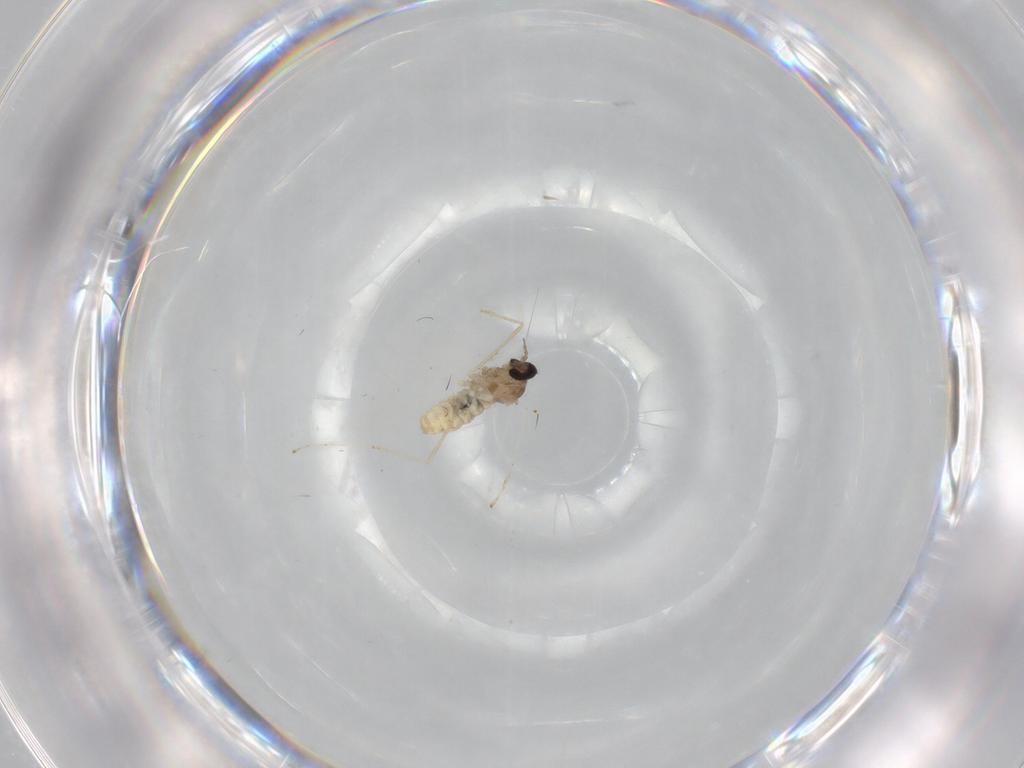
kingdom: Animalia
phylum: Arthropoda
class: Insecta
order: Diptera
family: Cecidomyiidae
